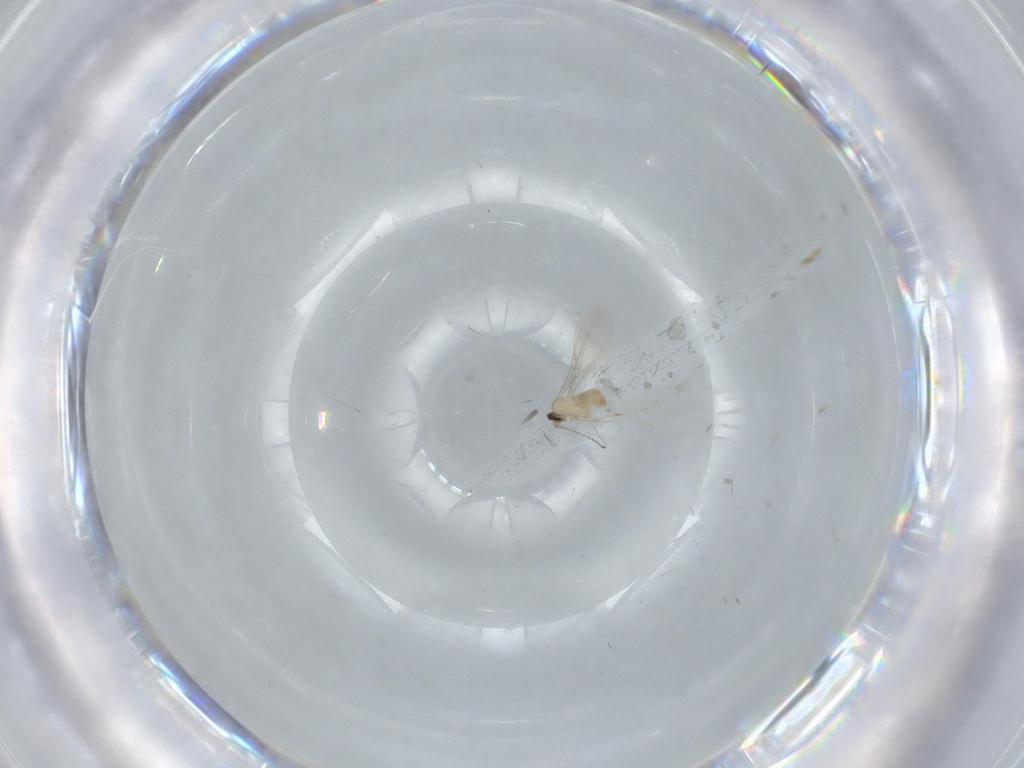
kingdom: Animalia
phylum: Arthropoda
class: Insecta
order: Diptera
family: Cecidomyiidae
